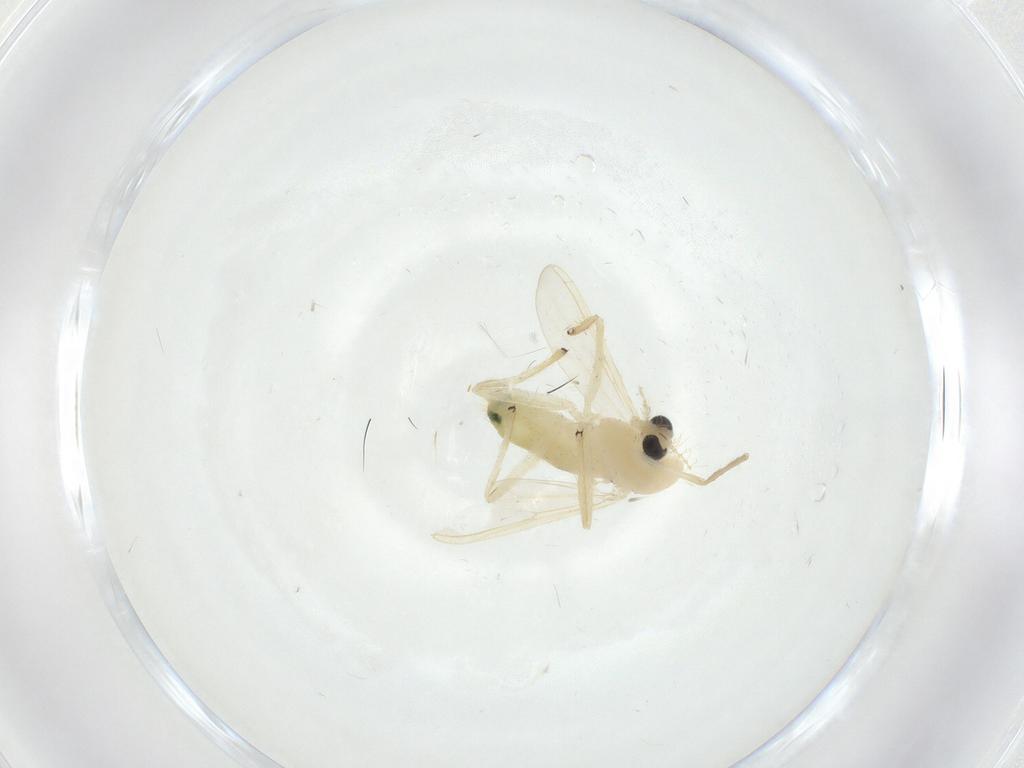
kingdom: Animalia
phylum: Arthropoda
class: Insecta
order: Diptera
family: Chironomidae
